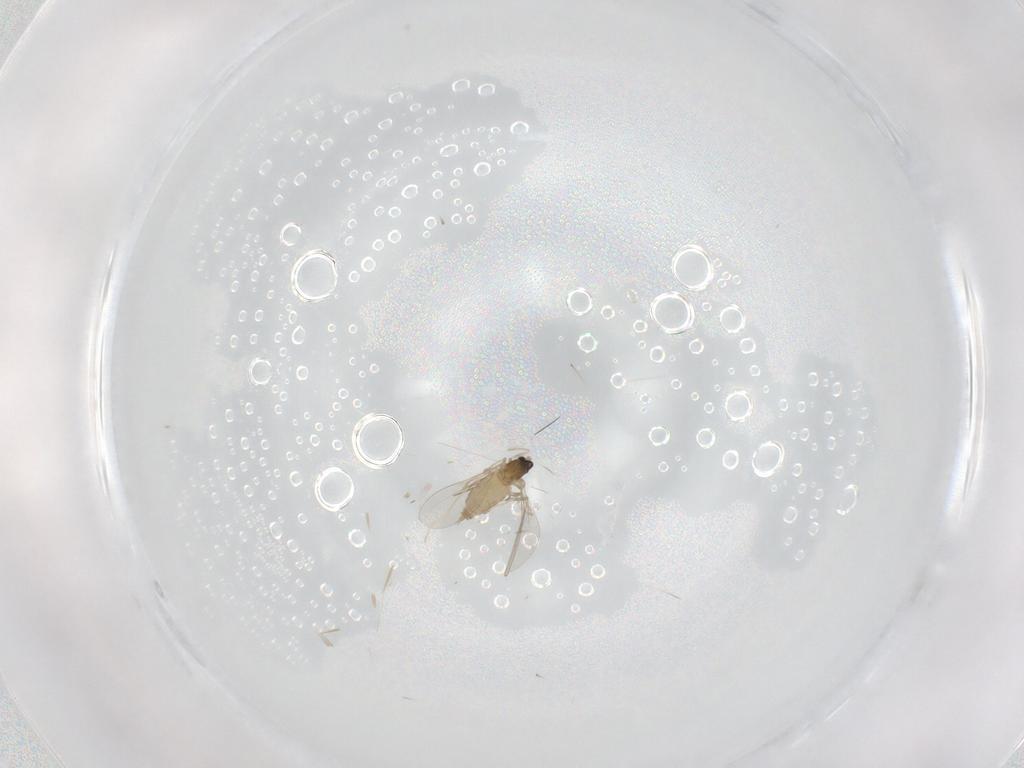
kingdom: Animalia
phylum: Arthropoda
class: Insecta
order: Diptera
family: Cecidomyiidae
